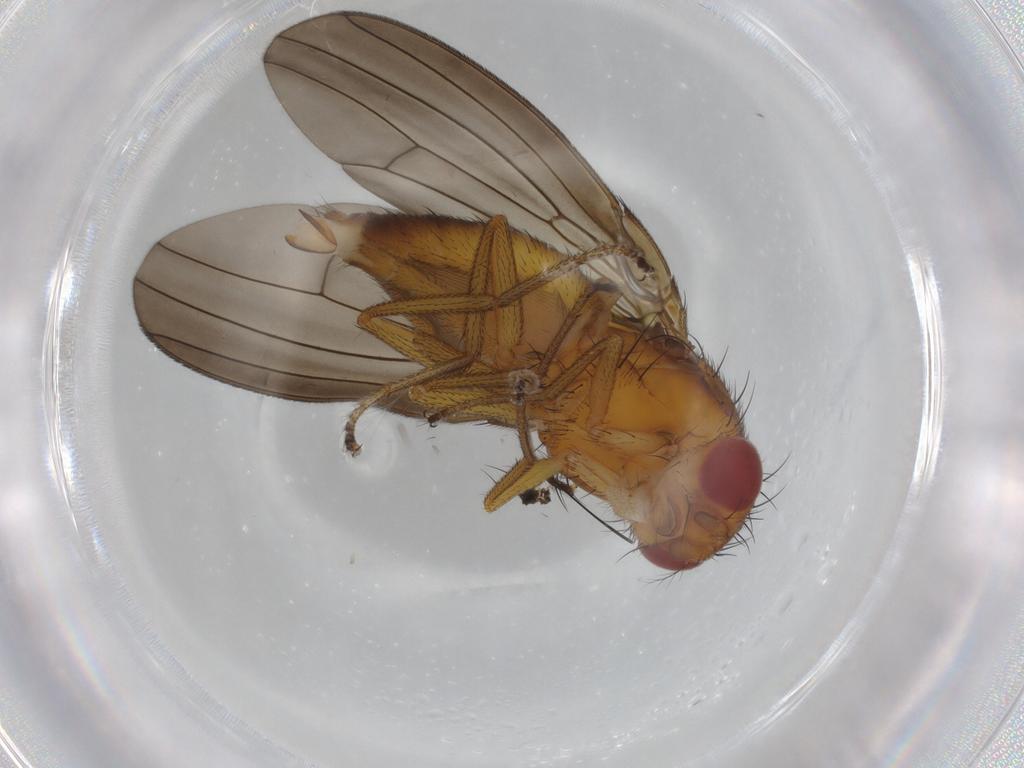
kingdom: Animalia
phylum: Arthropoda
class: Insecta
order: Diptera
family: Drosophilidae
